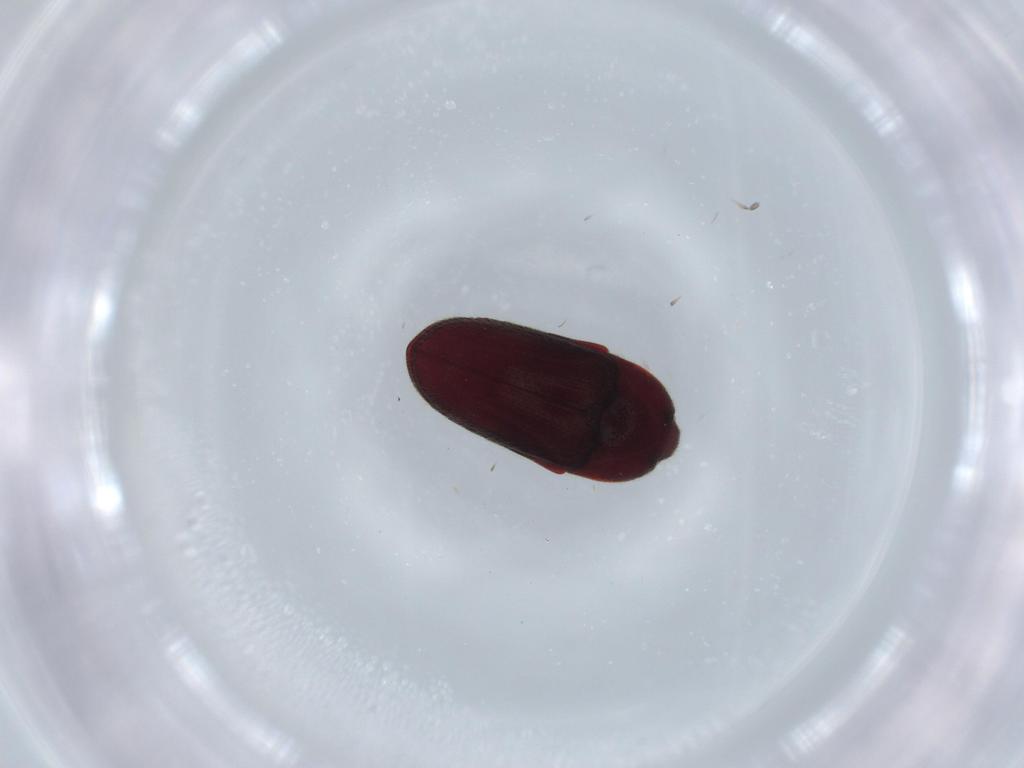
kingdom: Animalia
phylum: Arthropoda
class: Insecta
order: Coleoptera
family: Throscidae
